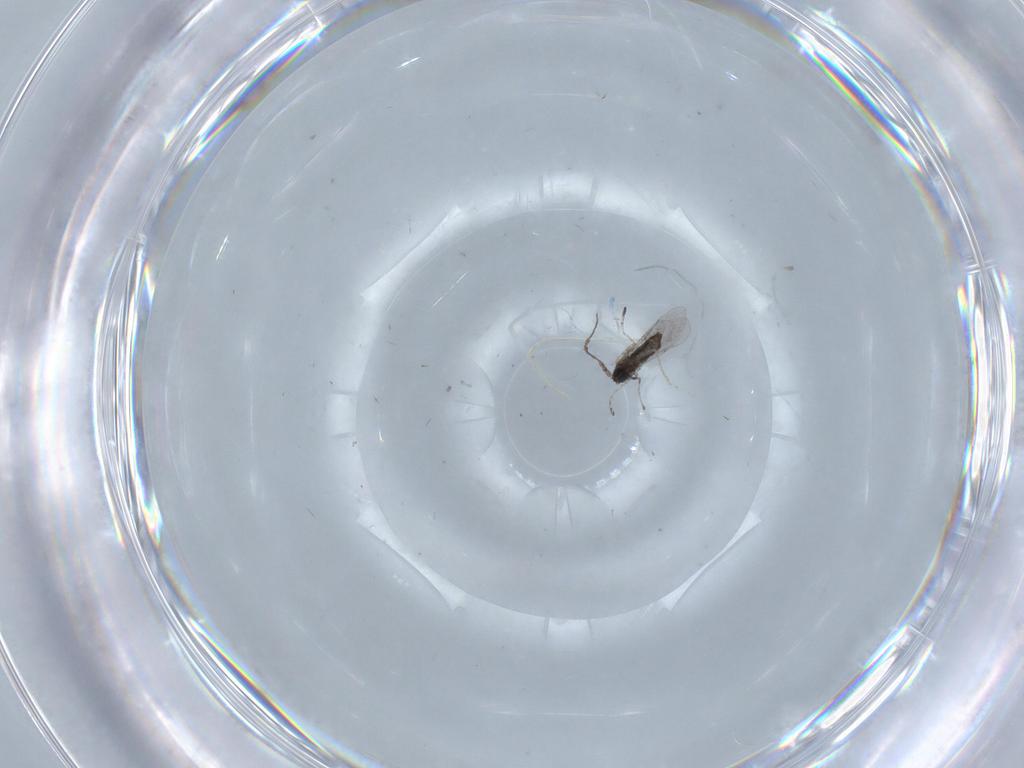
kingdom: Animalia
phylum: Arthropoda
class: Insecta
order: Diptera
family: Cecidomyiidae
